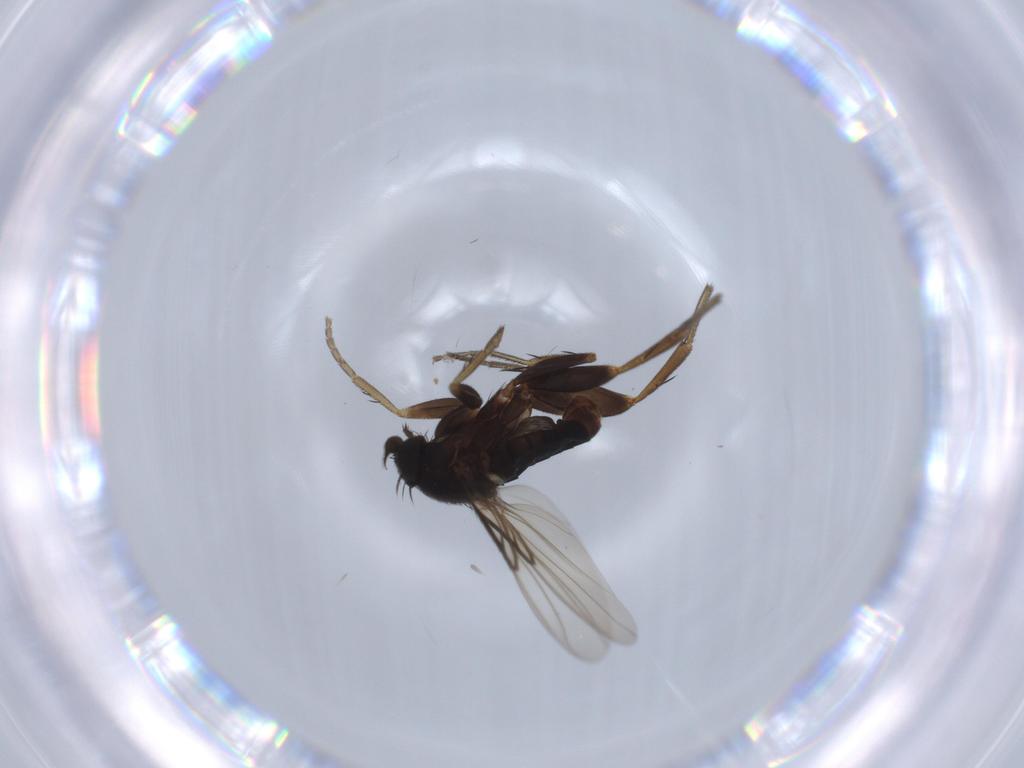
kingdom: Animalia
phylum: Arthropoda
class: Insecta
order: Diptera
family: Phoridae
